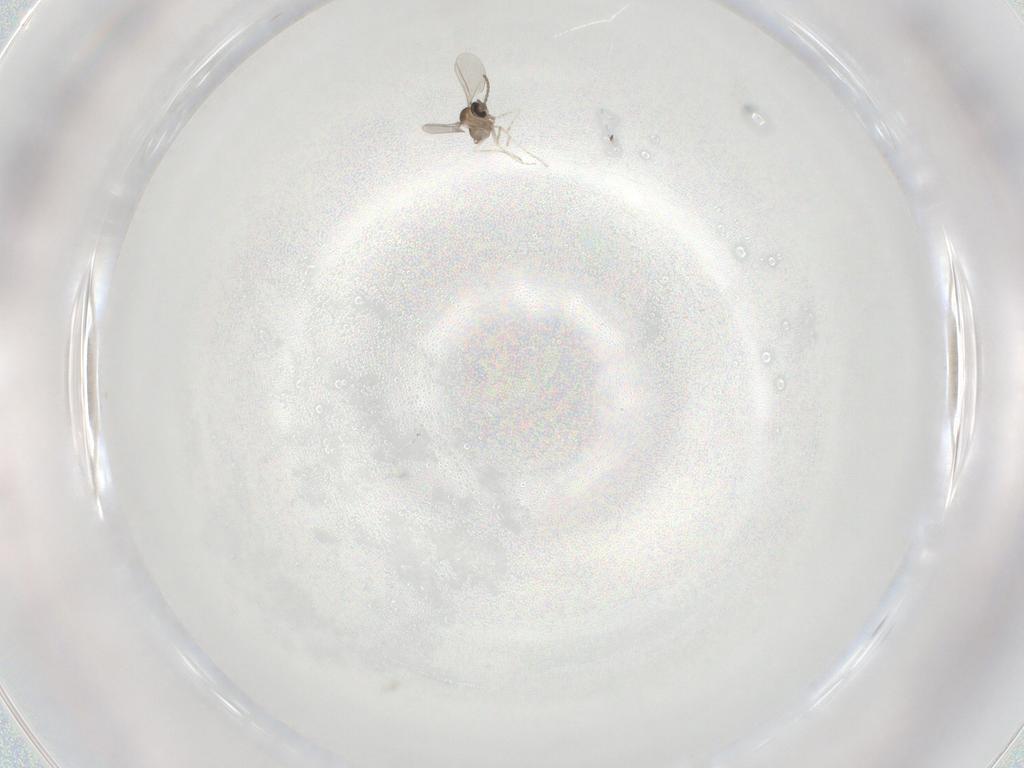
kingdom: Animalia
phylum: Arthropoda
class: Insecta
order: Diptera
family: Cecidomyiidae
